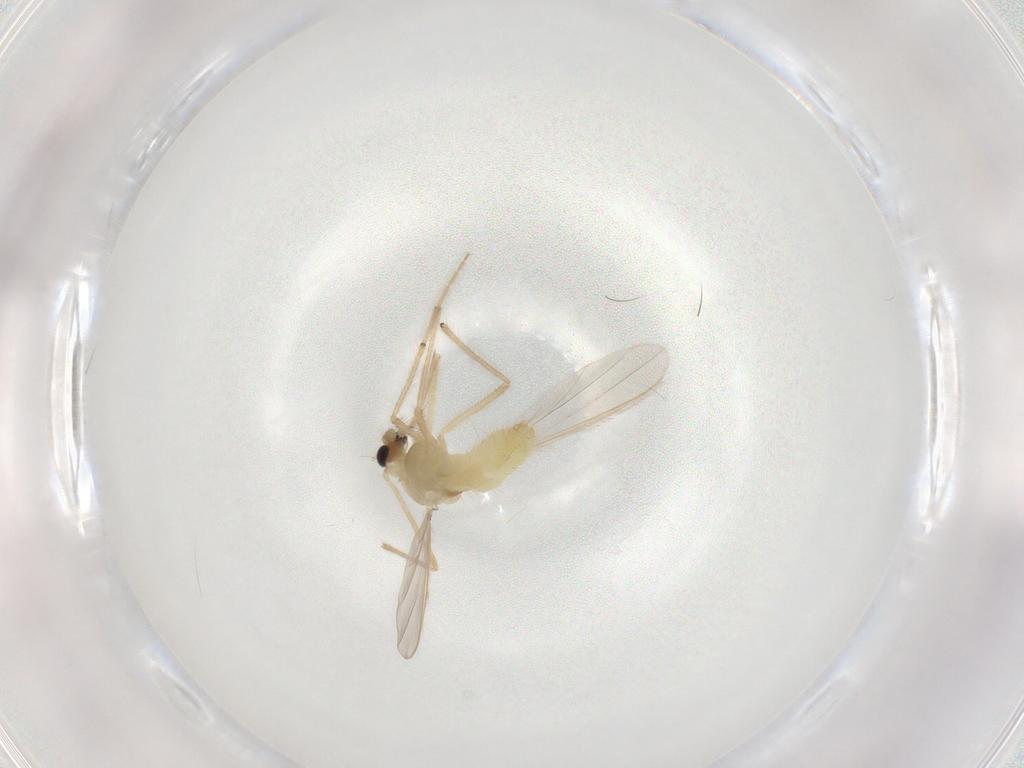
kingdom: Animalia
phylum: Arthropoda
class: Insecta
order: Diptera
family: Chironomidae
